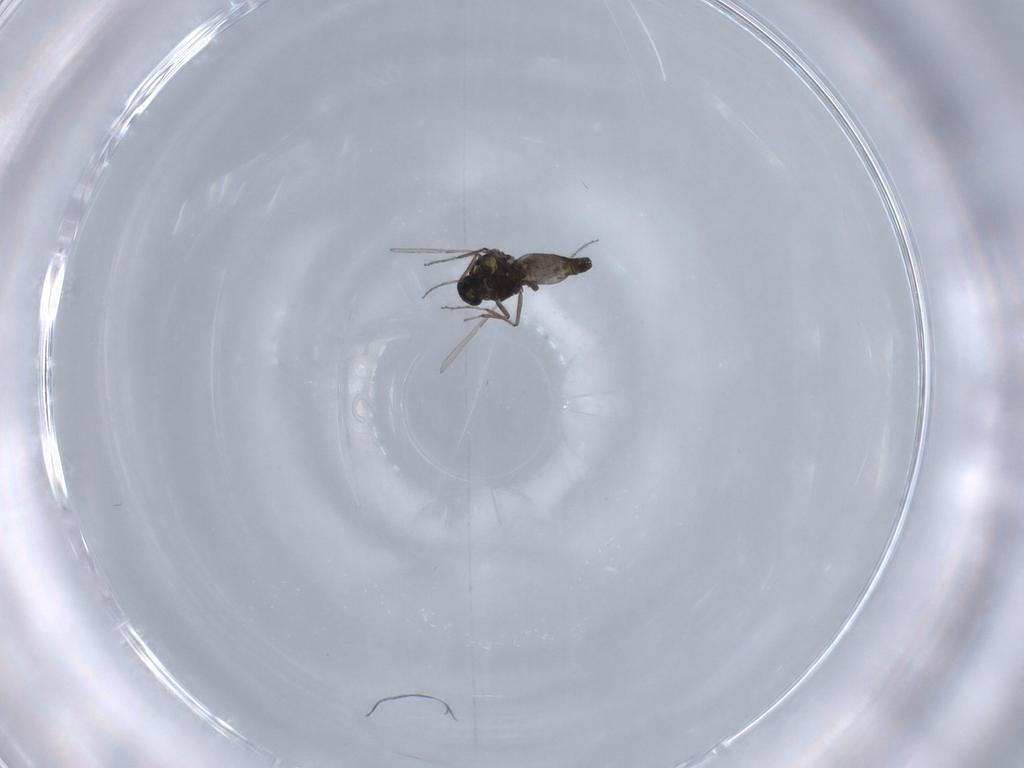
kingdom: Animalia
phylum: Arthropoda
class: Insecta
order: Diptera
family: Ceratopogonidae
